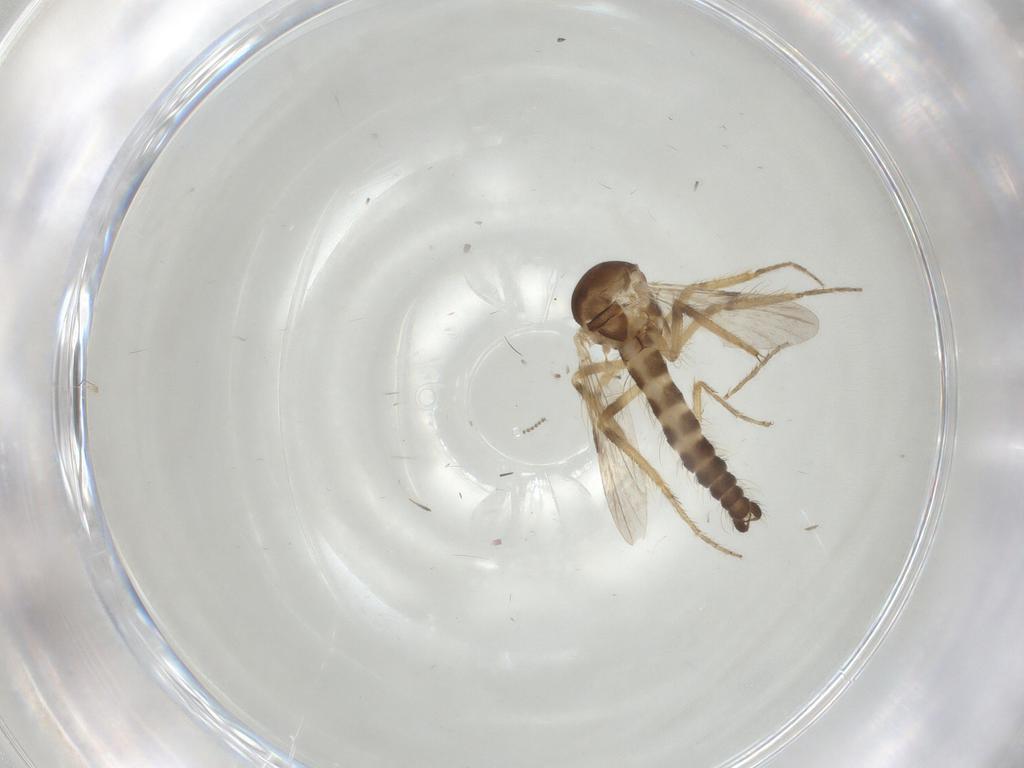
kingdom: Animalia
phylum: Arthropoda
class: Insecta
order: Diptera
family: Ceratopogonidae
